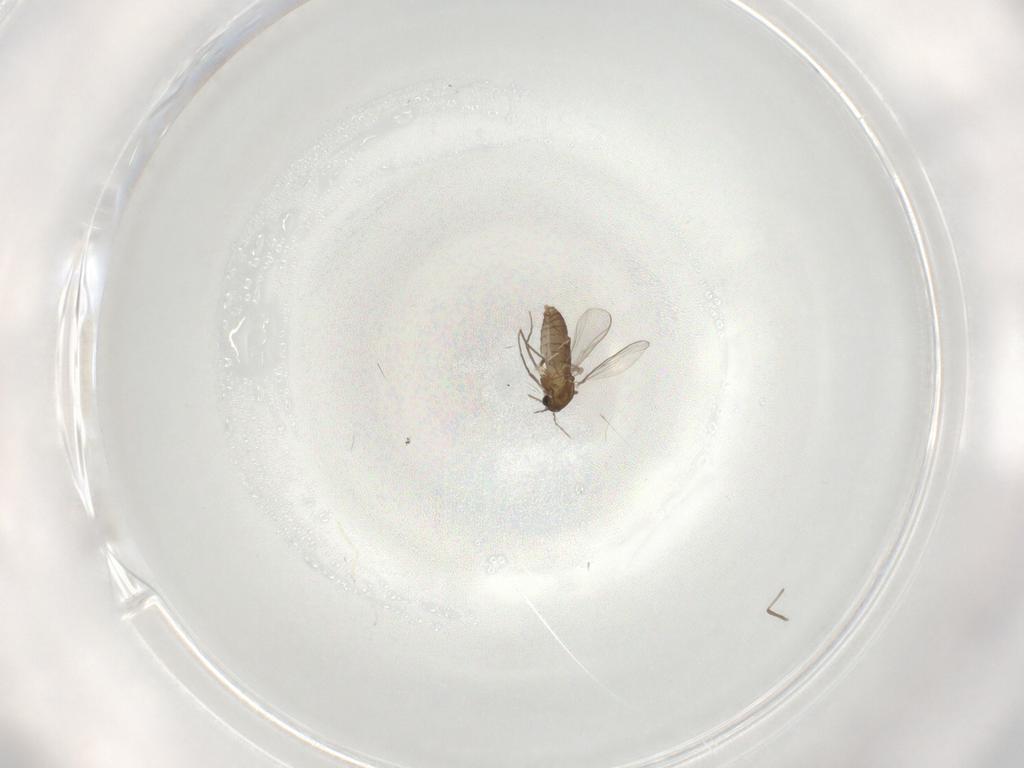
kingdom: Animalia
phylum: Arthropoda
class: Insecta
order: Diptera
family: Chironomidae
